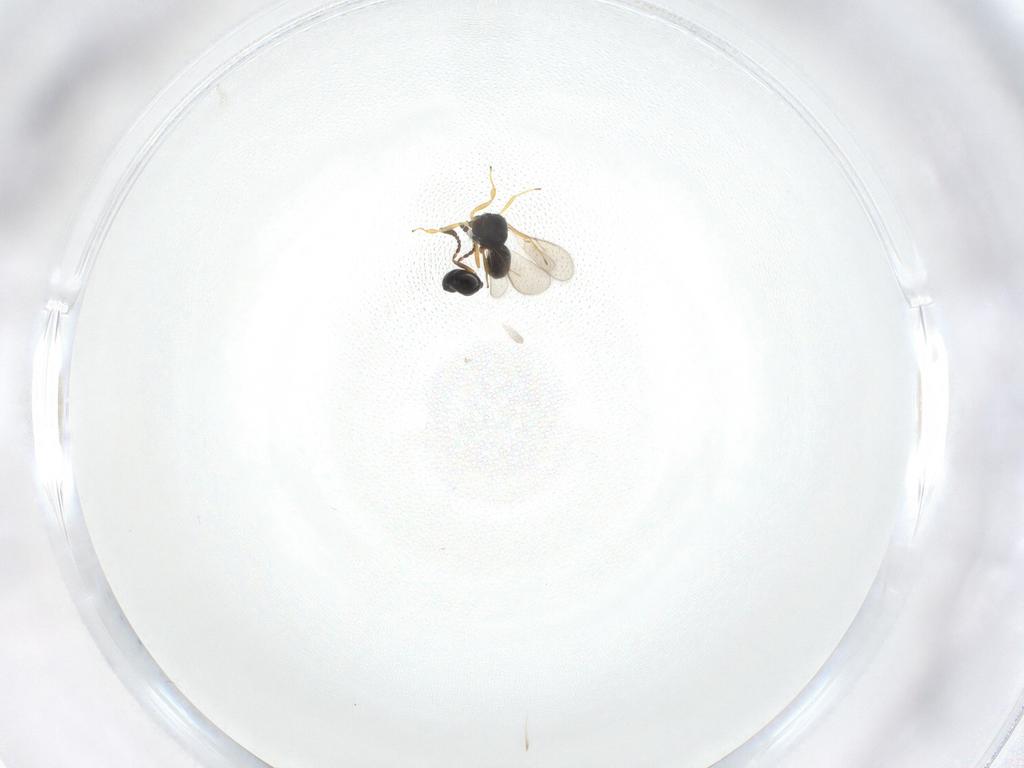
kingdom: Animalia
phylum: Arthropoda
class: Insecta
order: Hymenoptera
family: Scelionidae
